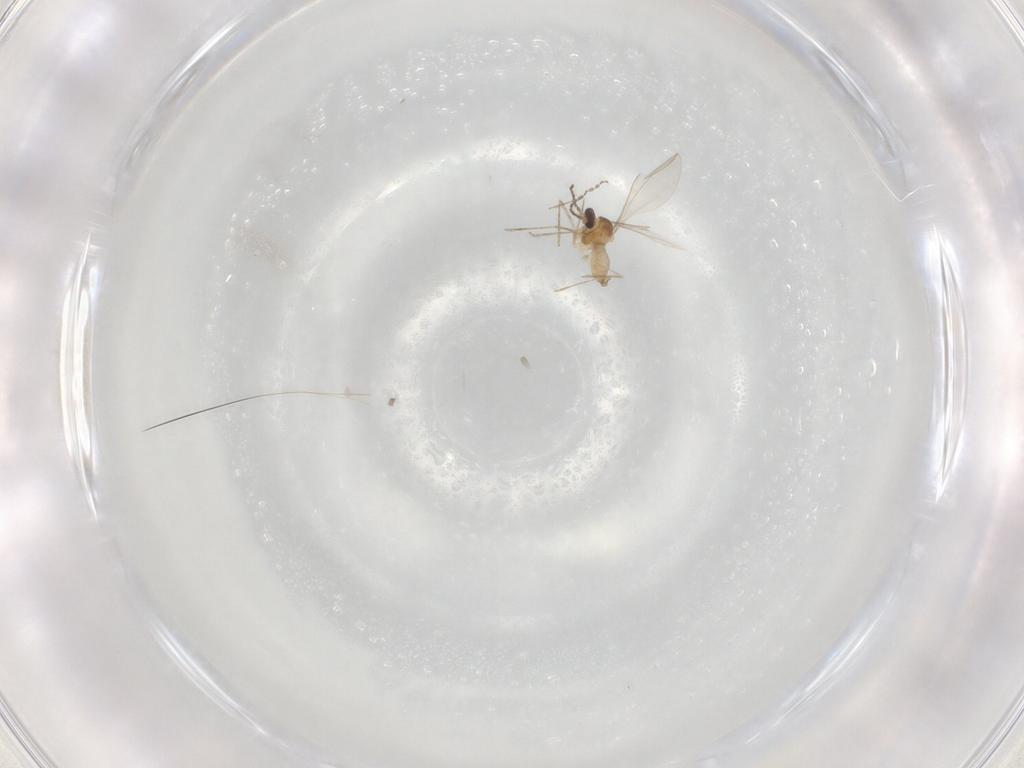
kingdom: Animalia
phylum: Arthropoda
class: Insecta
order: Diptera
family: Cecidomyiidae
